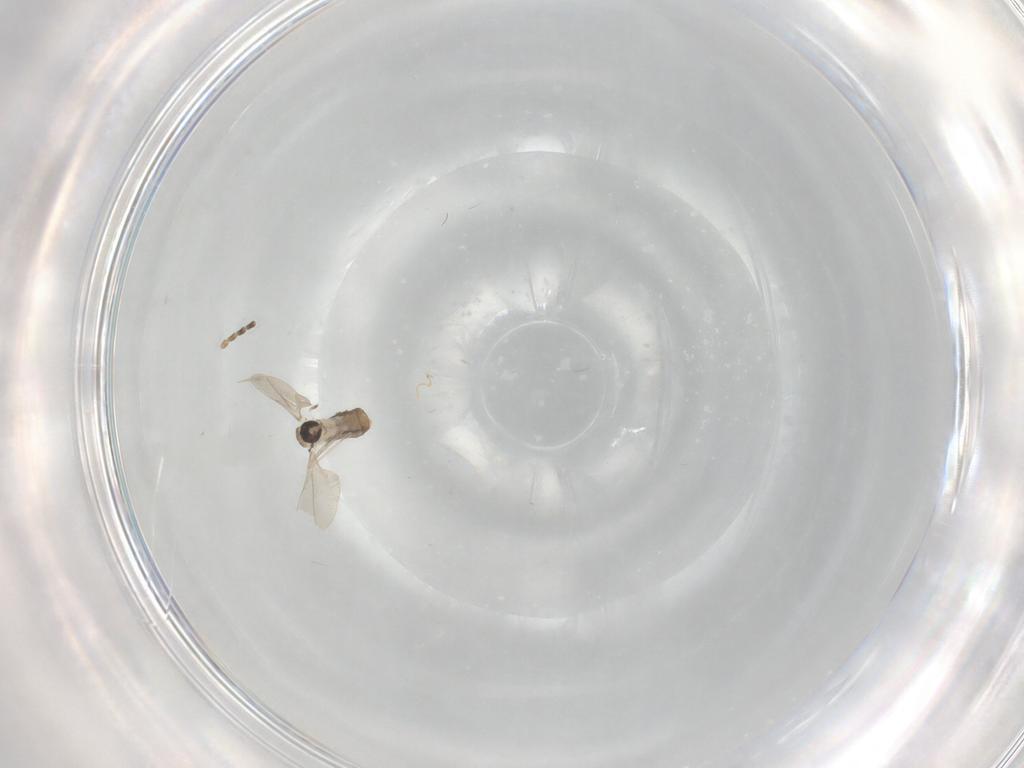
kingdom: Animalia
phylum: Arthropoda
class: Insecta
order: Diptera
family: Cecidomyiidae
